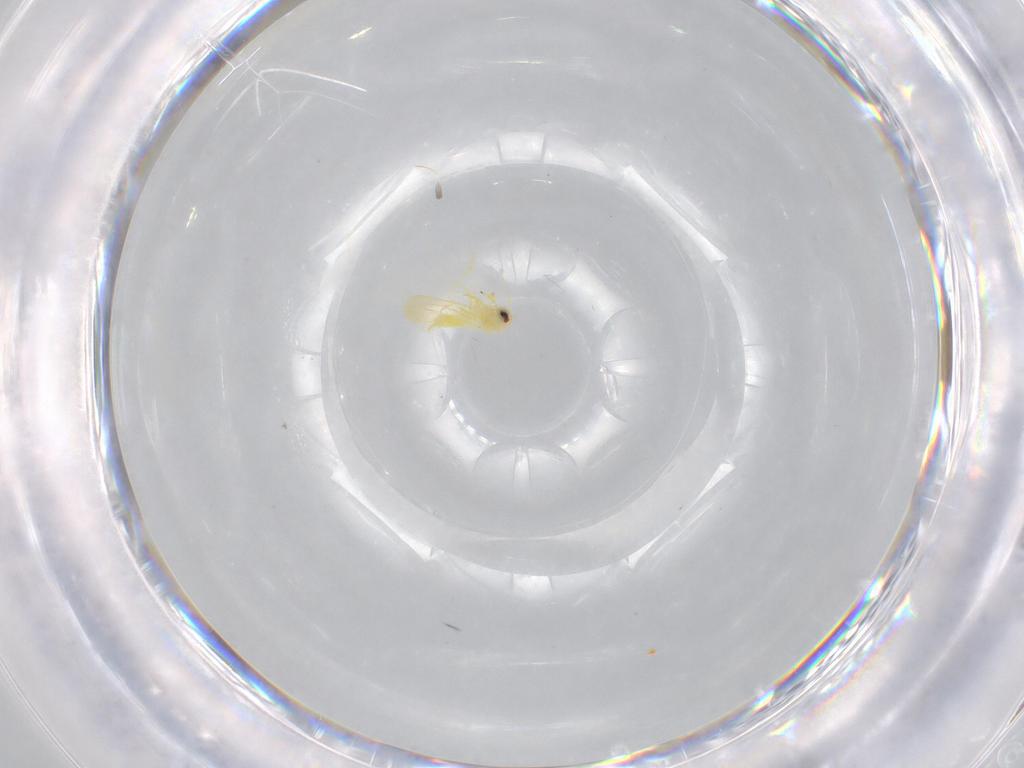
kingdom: Animalia
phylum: Arthropoda
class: Insecta
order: Hemiptera
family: Aleyrodidae
